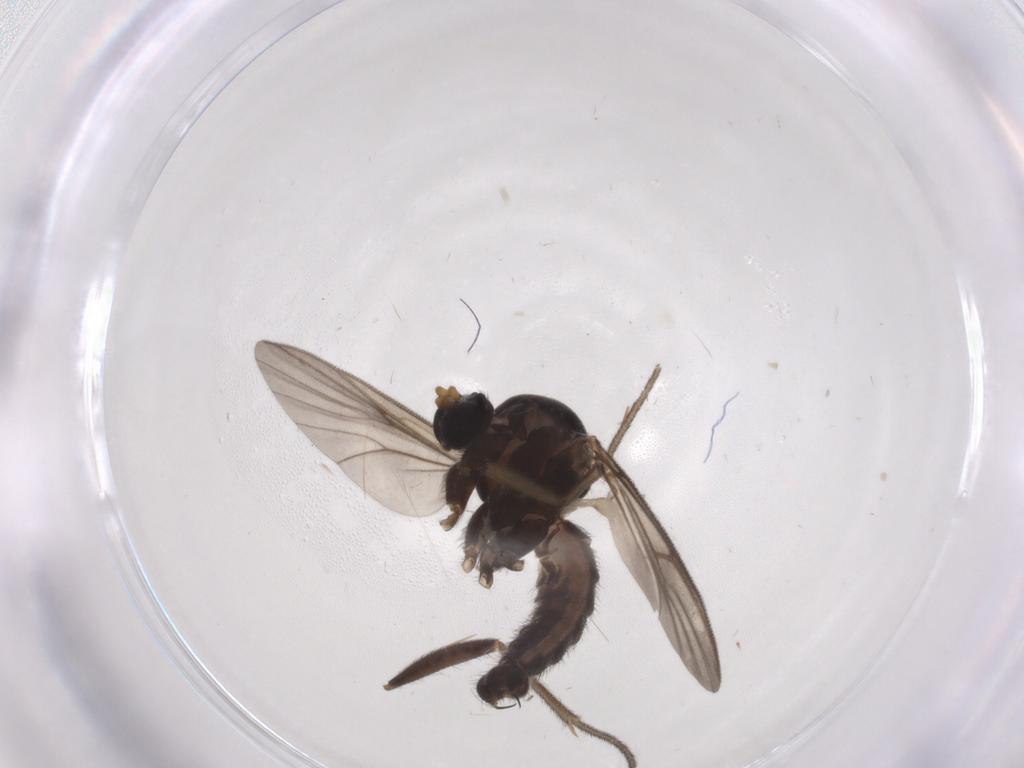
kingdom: Animalia
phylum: Arthropoda
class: Insecta
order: Diptera
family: Mycetophilidae
